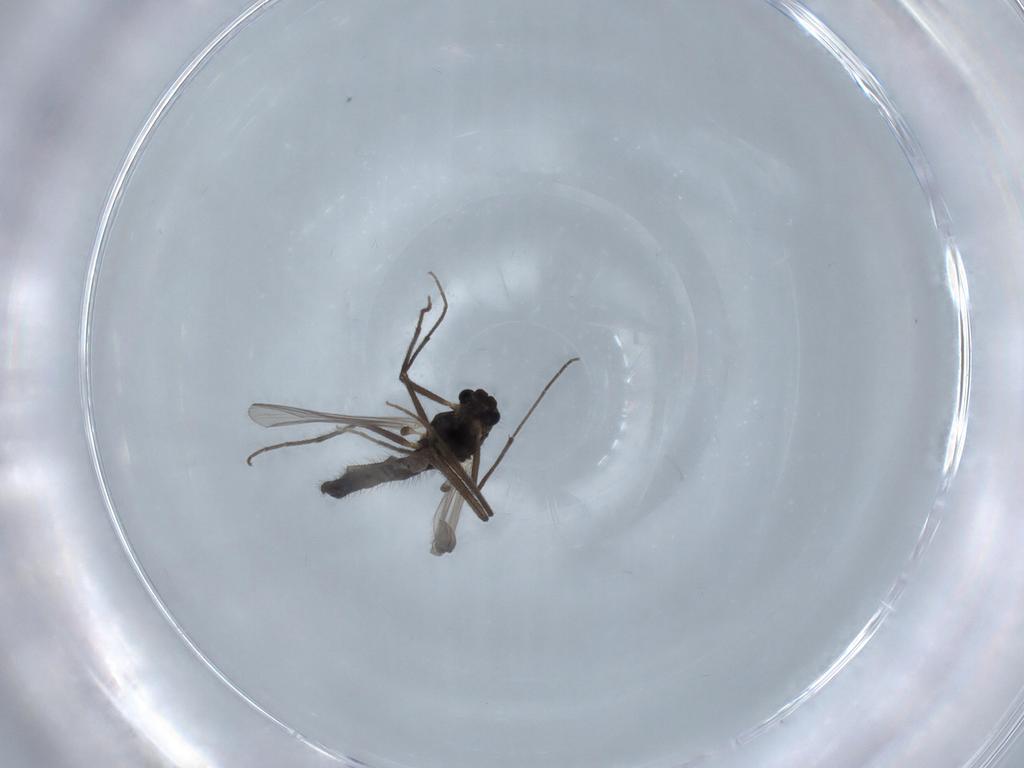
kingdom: Animalia
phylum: Arthropoda
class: Insecta
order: Diptera
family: Chironomidae
